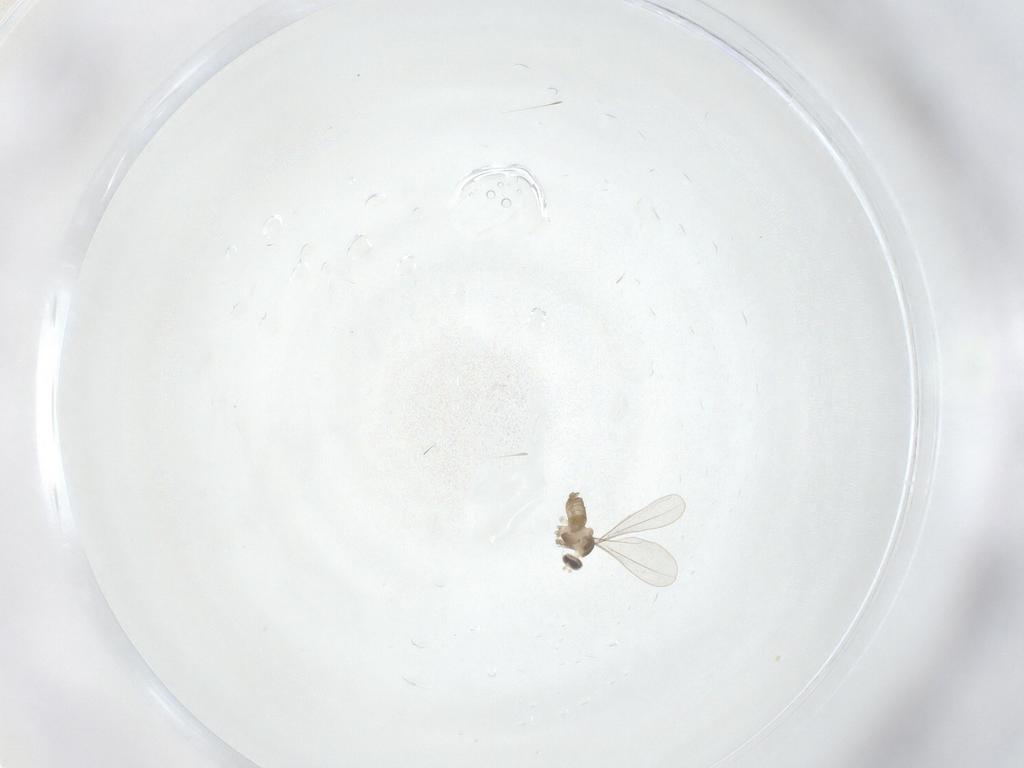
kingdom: Animalia
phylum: Arthropoda
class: Insecta
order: Diptera
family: Cecidomyiidae
